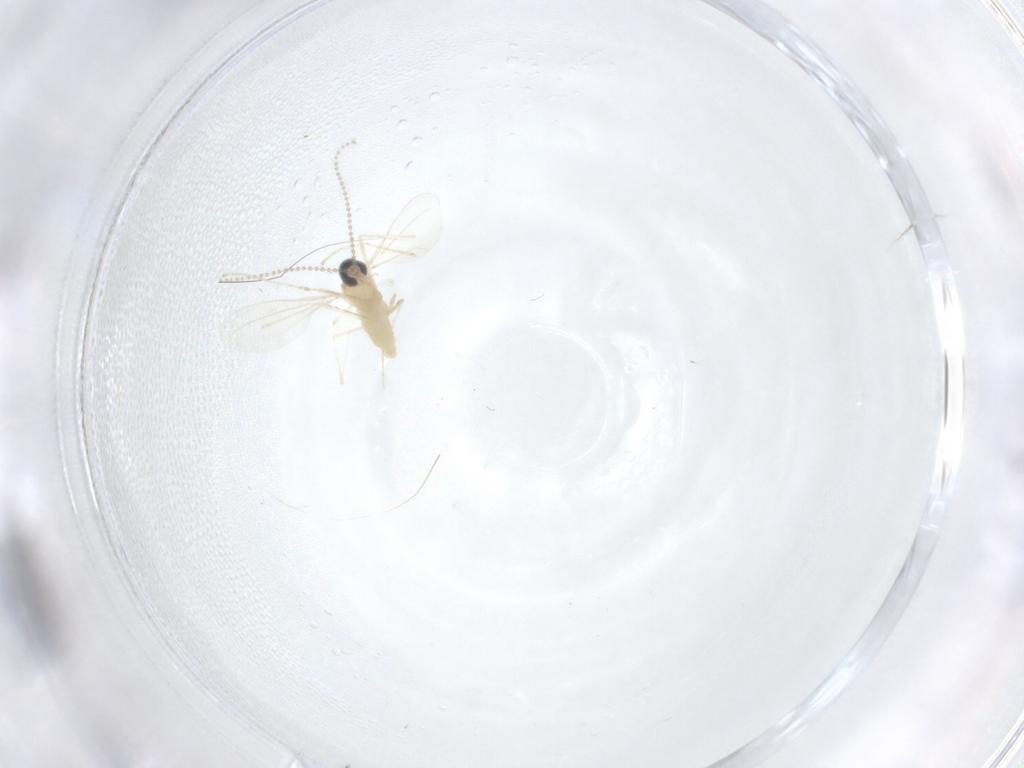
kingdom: Animalia
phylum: Arthropoda
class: Insecta
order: Diptera
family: Cecidomyiidae
